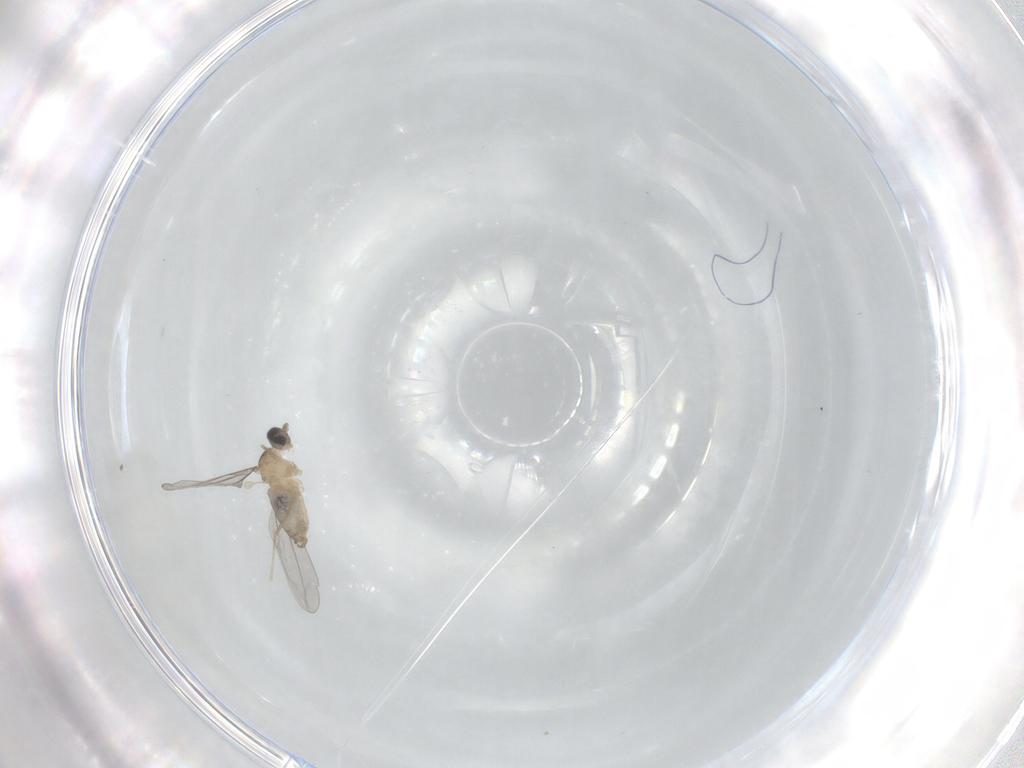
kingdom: Animalia
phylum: Arthropoda
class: Insecta
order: Diptera
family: Cecidomyiidae
